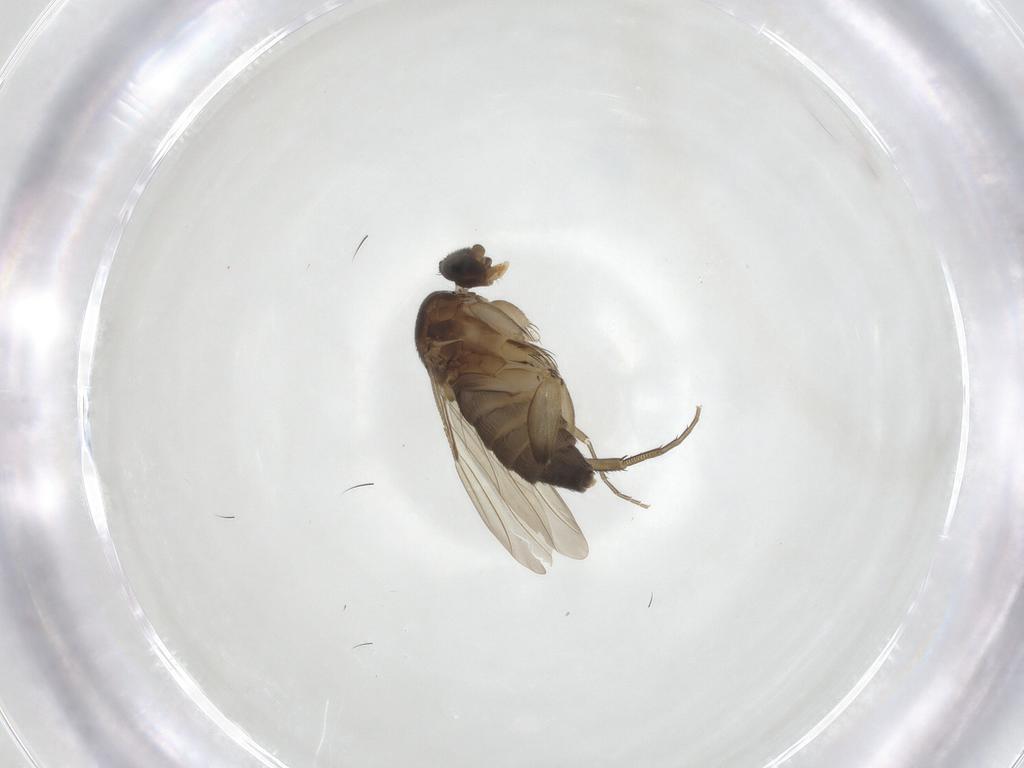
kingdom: Animalia
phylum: Arthropoda
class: Insecta
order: Diptera
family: Phoridae
